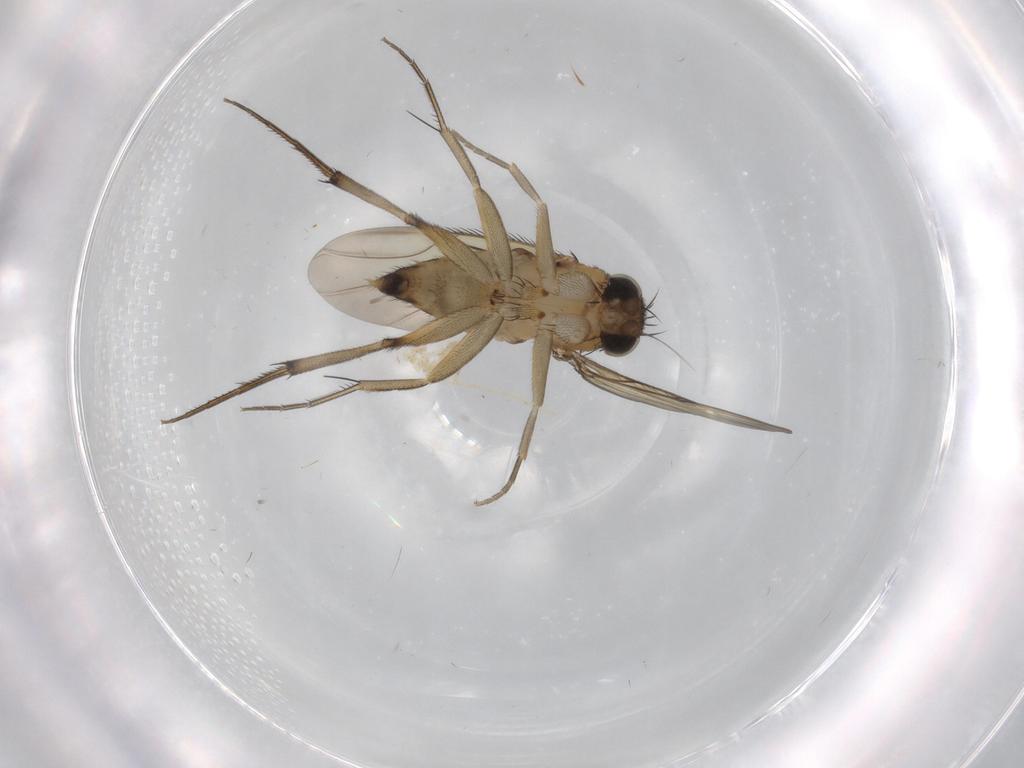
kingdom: Animalia
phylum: Arthropoda
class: Insecta
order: Diptera
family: Phoridae
